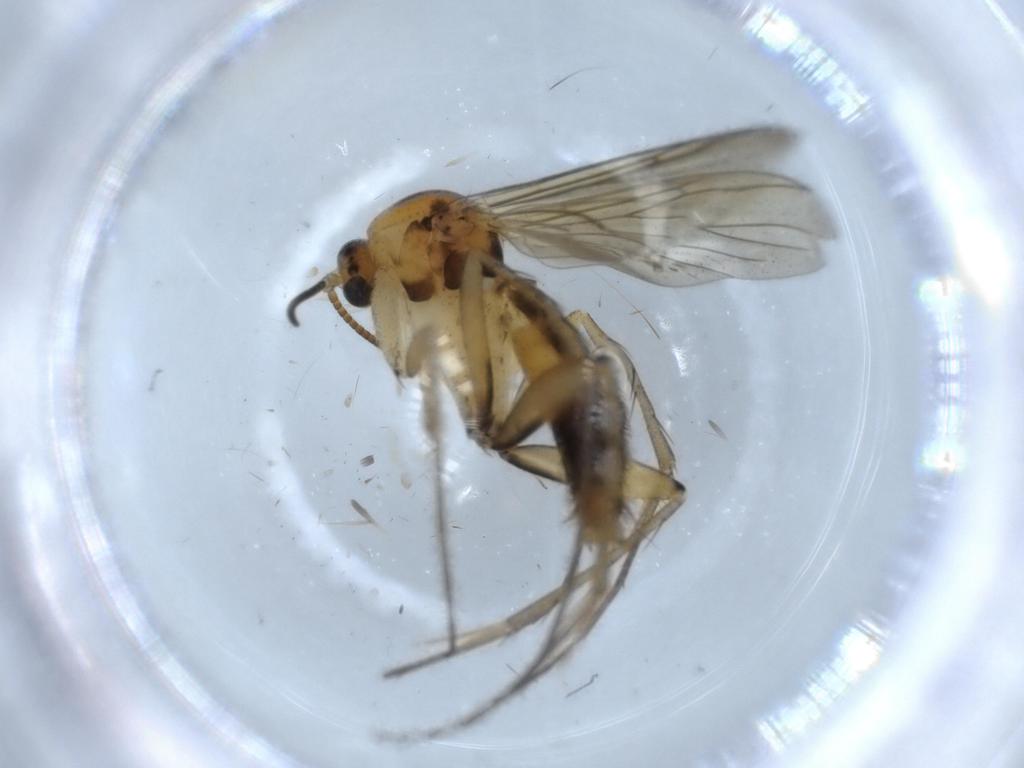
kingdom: Animalia
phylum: Arthropoda
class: Insecta
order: Diptera
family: Mycetophilidae
